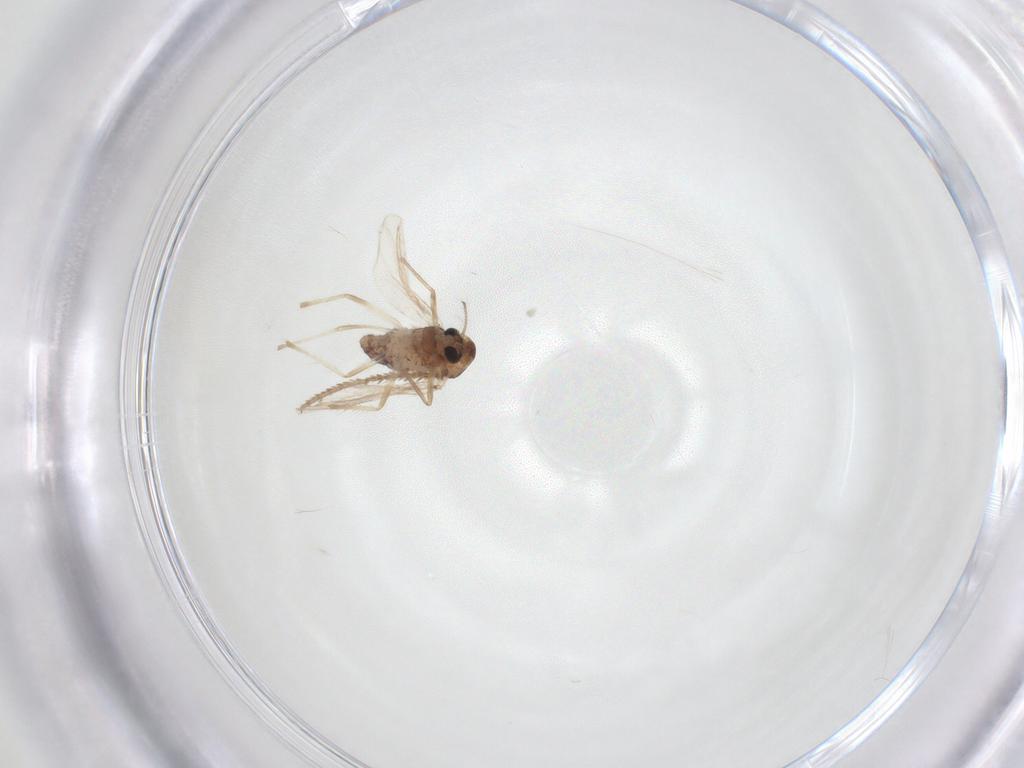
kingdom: Animalia
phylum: Arthropoda
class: Insecta
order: Diptera
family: Chironomidae
